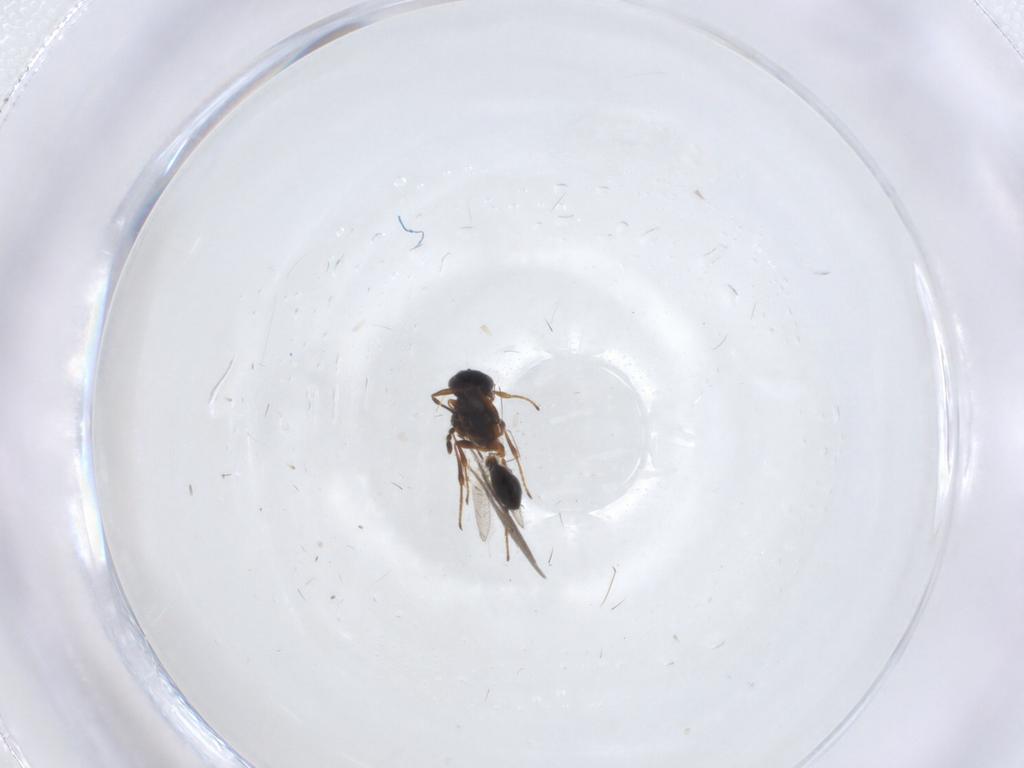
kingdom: Animalia
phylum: Arthropoda
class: Insecta
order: Hymenoptera
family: Platygastridae
